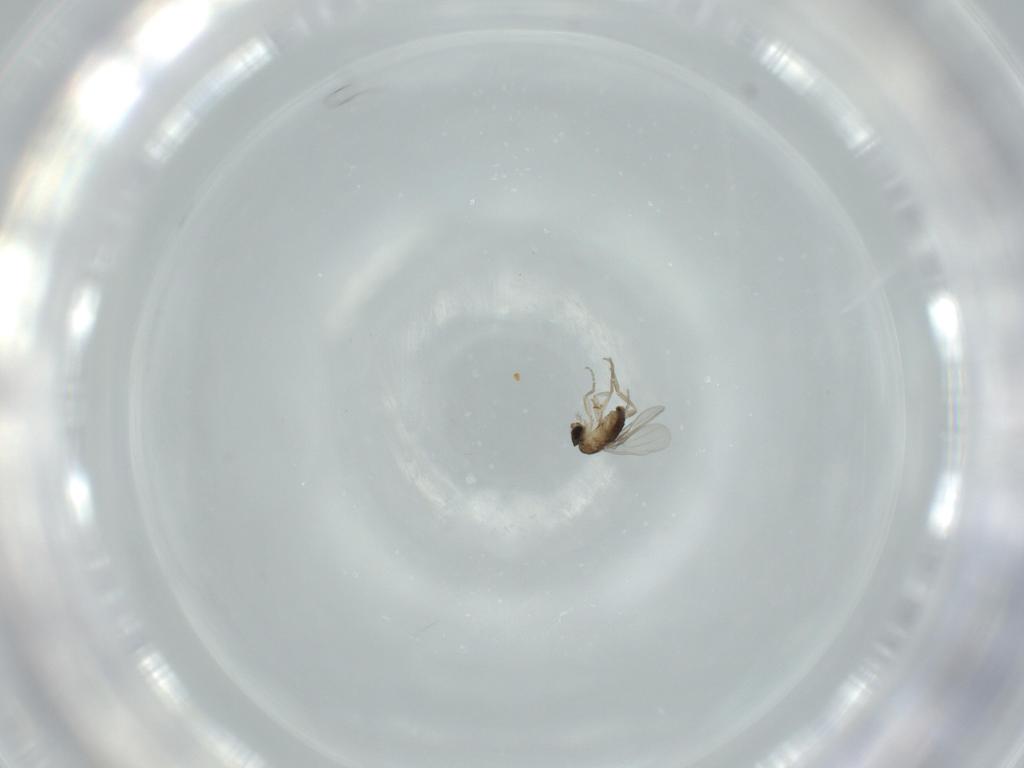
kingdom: Animalia
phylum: Arthropoda
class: Insecta
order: Diptera
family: Phoridae
